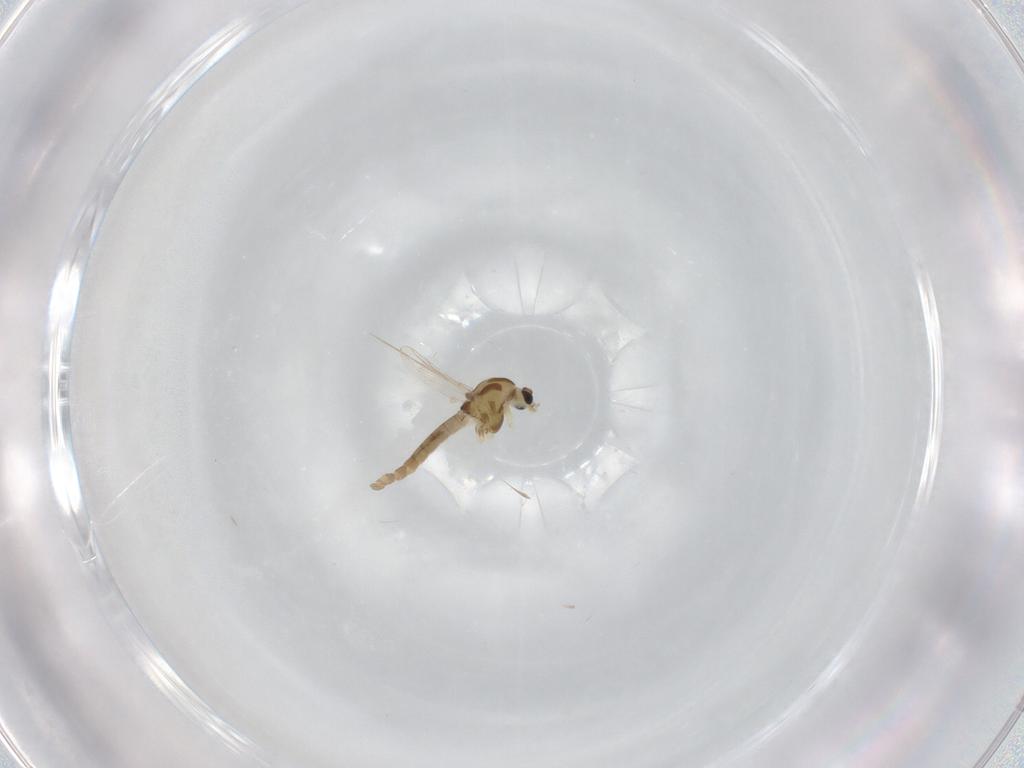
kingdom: Animalia
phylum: Arthropoda
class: Insecta
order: Diptera
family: Chironomidae
